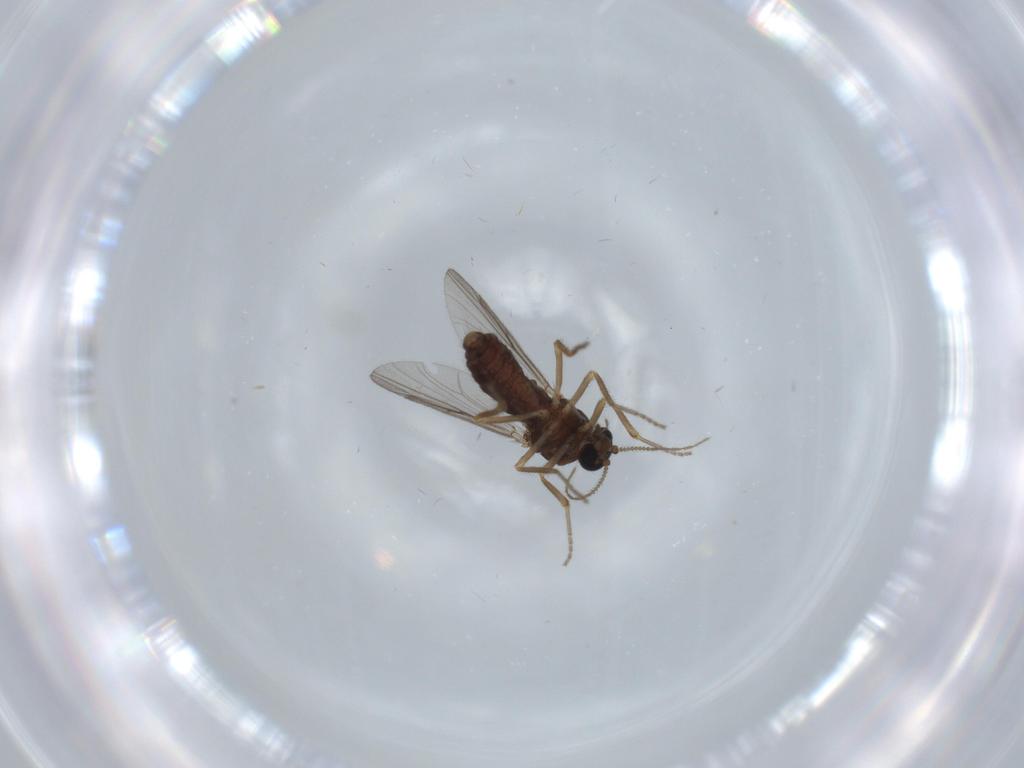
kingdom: Animalia
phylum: Arthropoda
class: Insecta
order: Diptera
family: Ceratopogonidae
